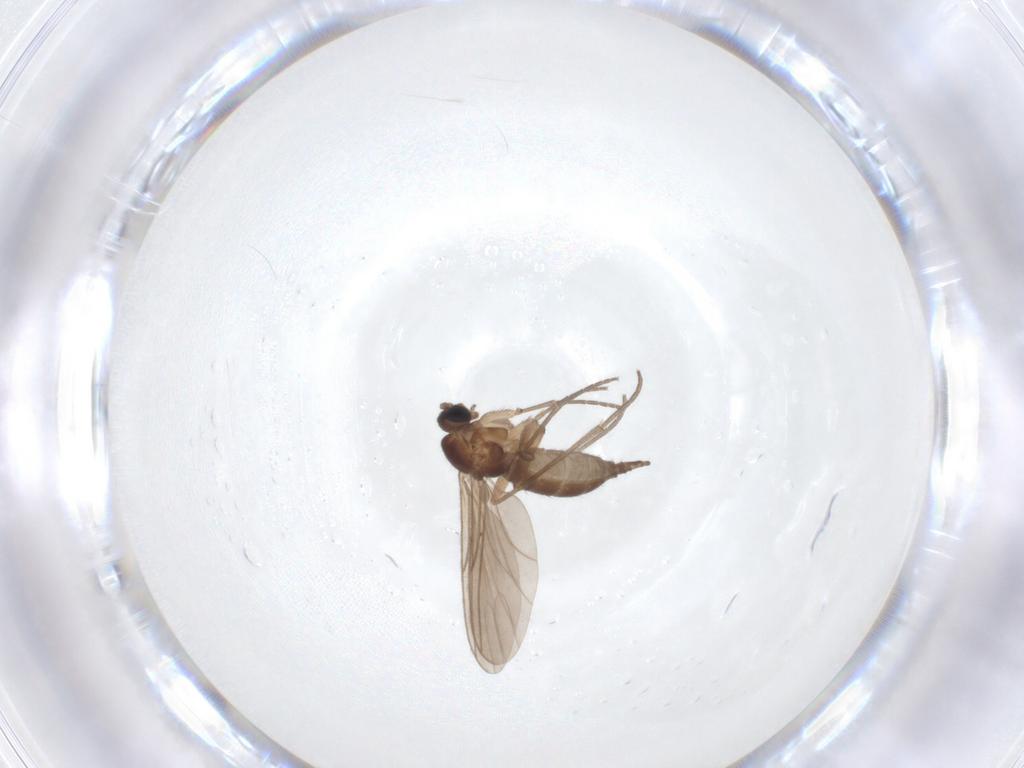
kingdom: Animalia
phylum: Arthropoda
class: Insecta
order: Diptera
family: Sciaridae
